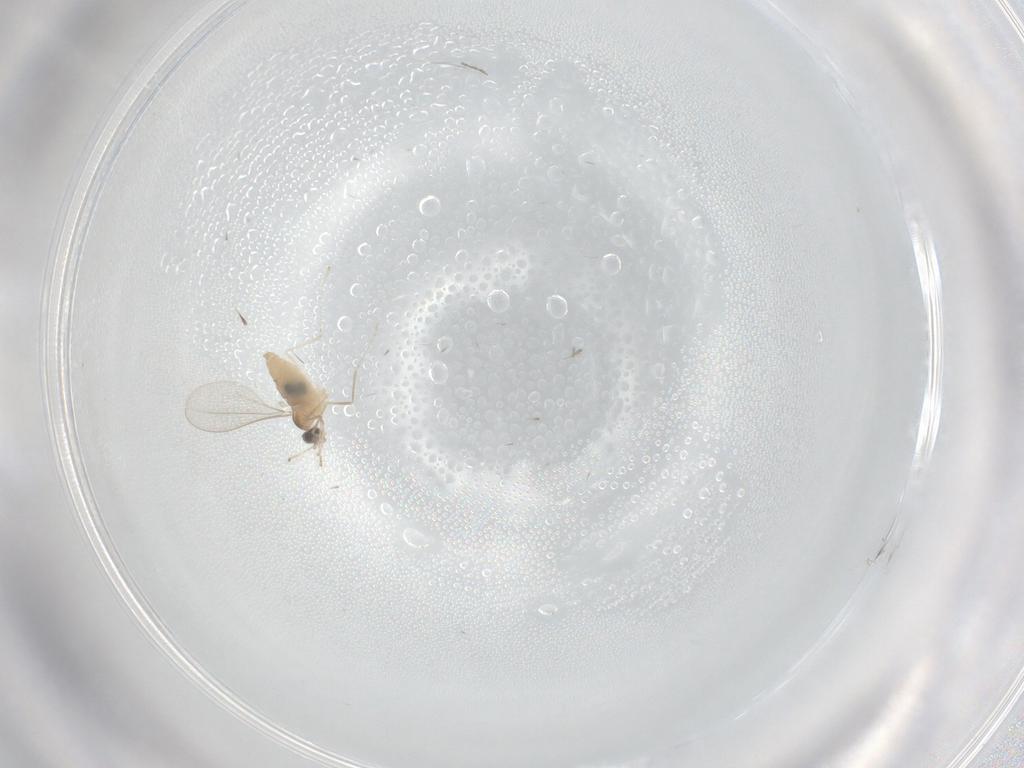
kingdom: Animalia
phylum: Arthropoda
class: Insecta
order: Diptera
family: Cecidomyiidae
